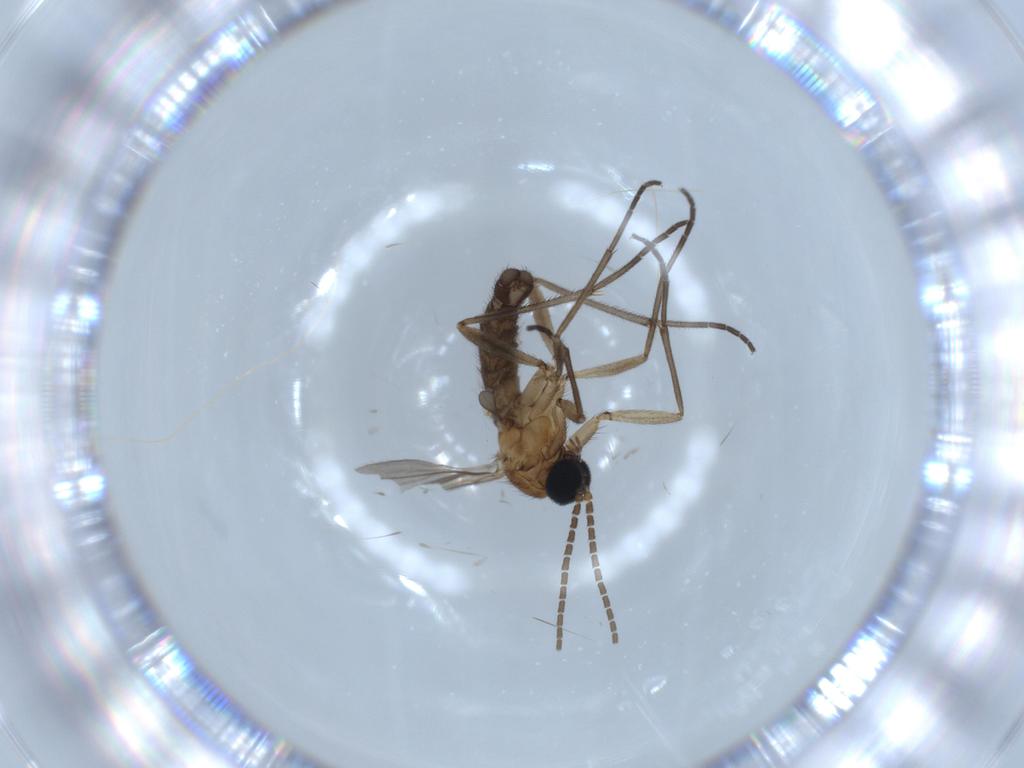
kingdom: Animalia
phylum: Arthropoda
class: Insecta
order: Diptera
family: Sciaridae
